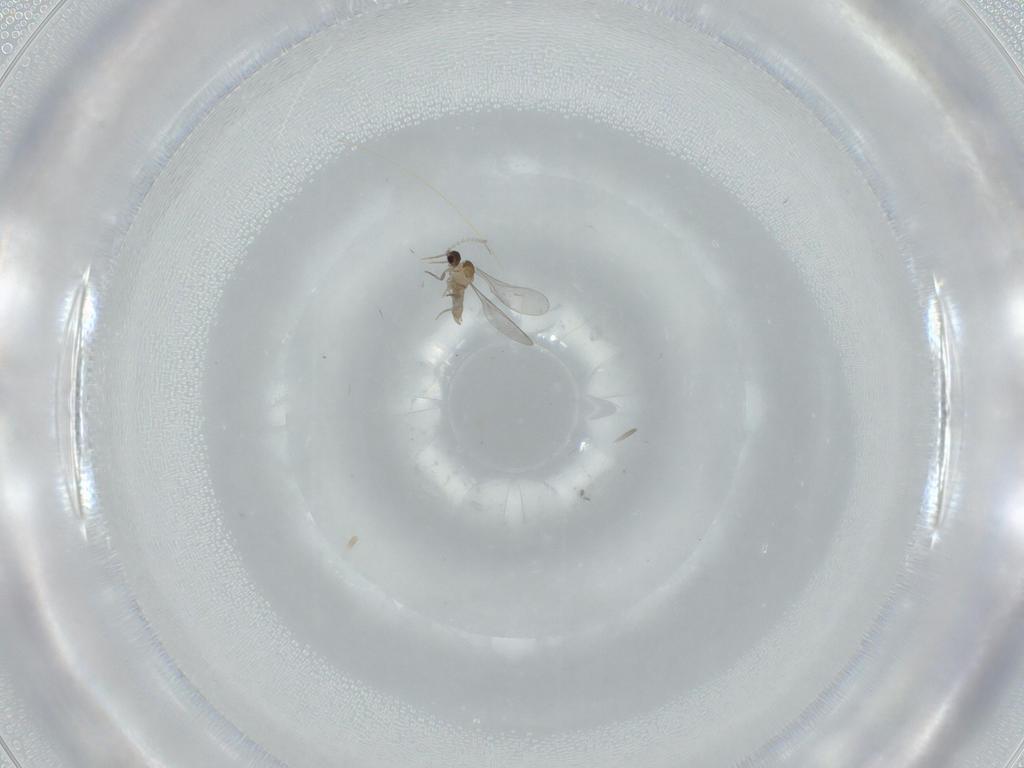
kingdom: Animalia
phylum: Arthropoda
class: Insecta
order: Diptera
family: Cecidomyiidae
